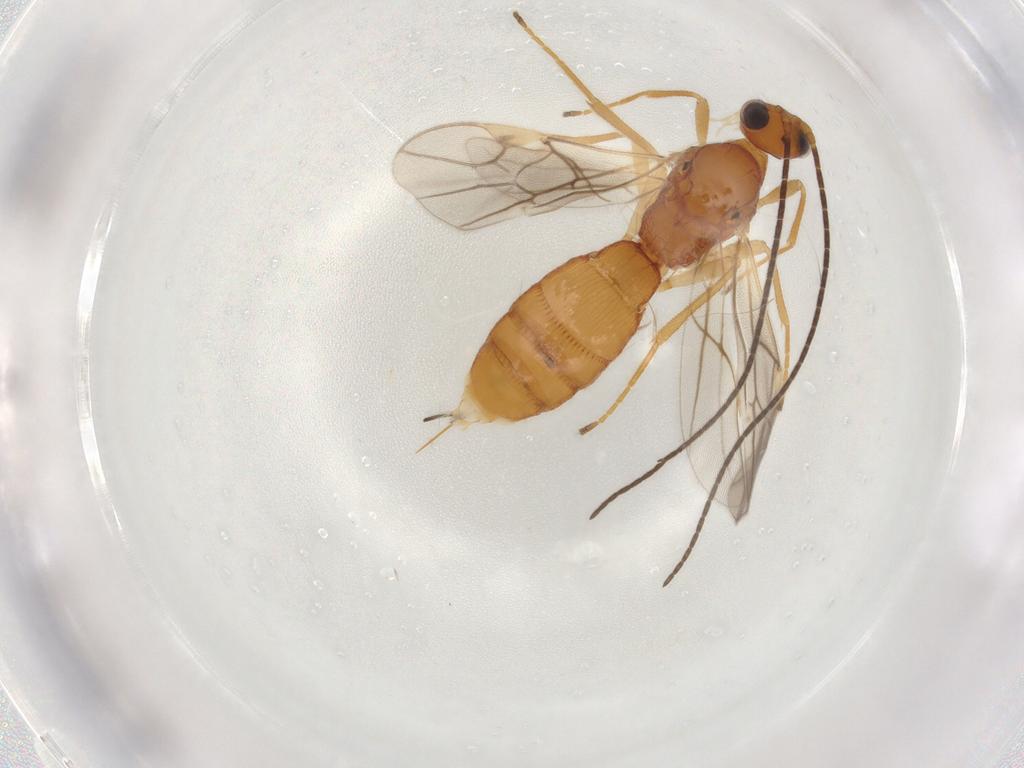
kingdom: Animalia
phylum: Arthropoda
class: Insecta
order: Hymenoptera
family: Braconidae
